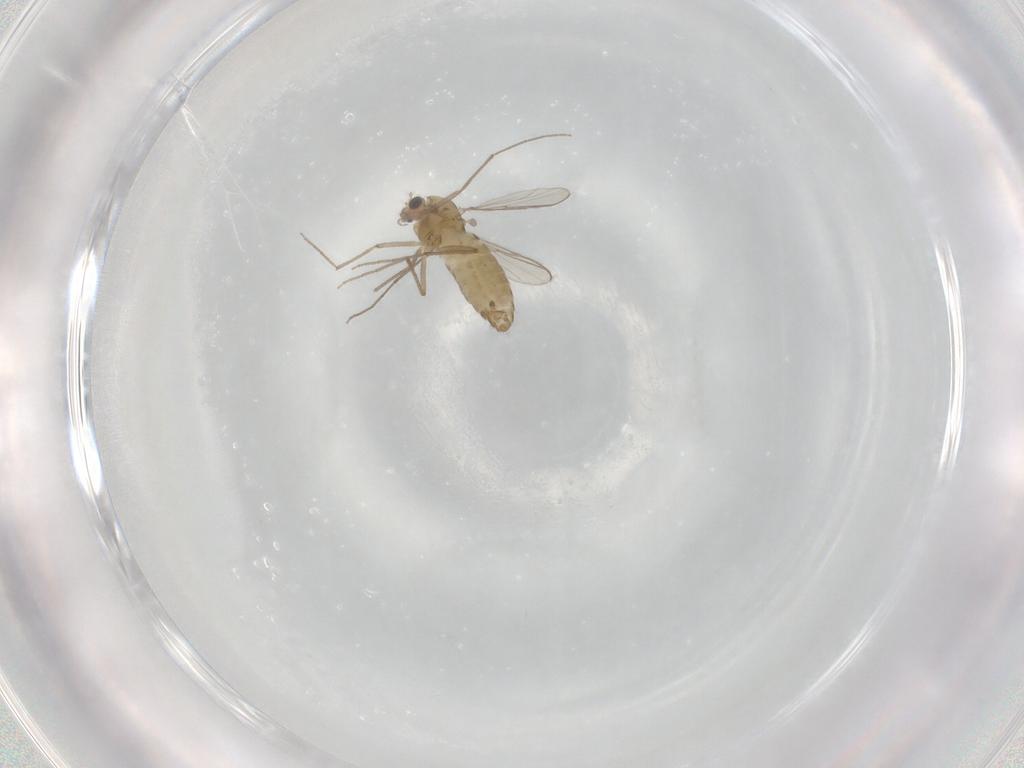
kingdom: Animalia
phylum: Arthropoda
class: Insecta
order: Diptera
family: Chironomidae
